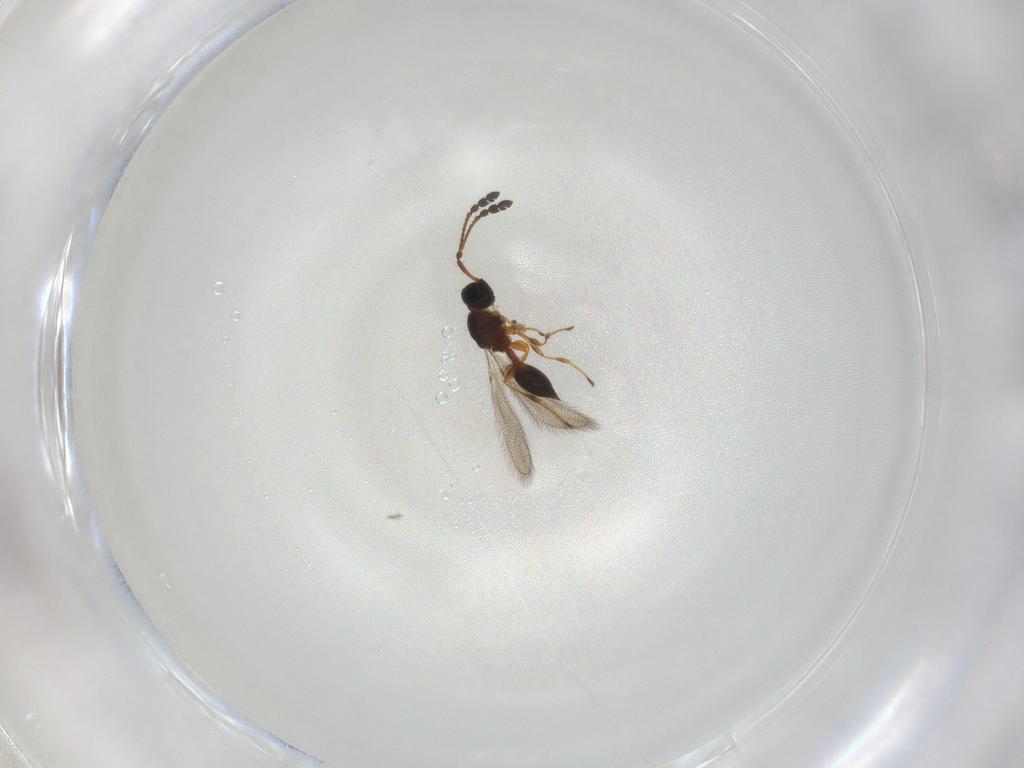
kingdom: Animalia
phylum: Arthropoda
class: Insecta
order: Hymenoptera
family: Diapriidae
